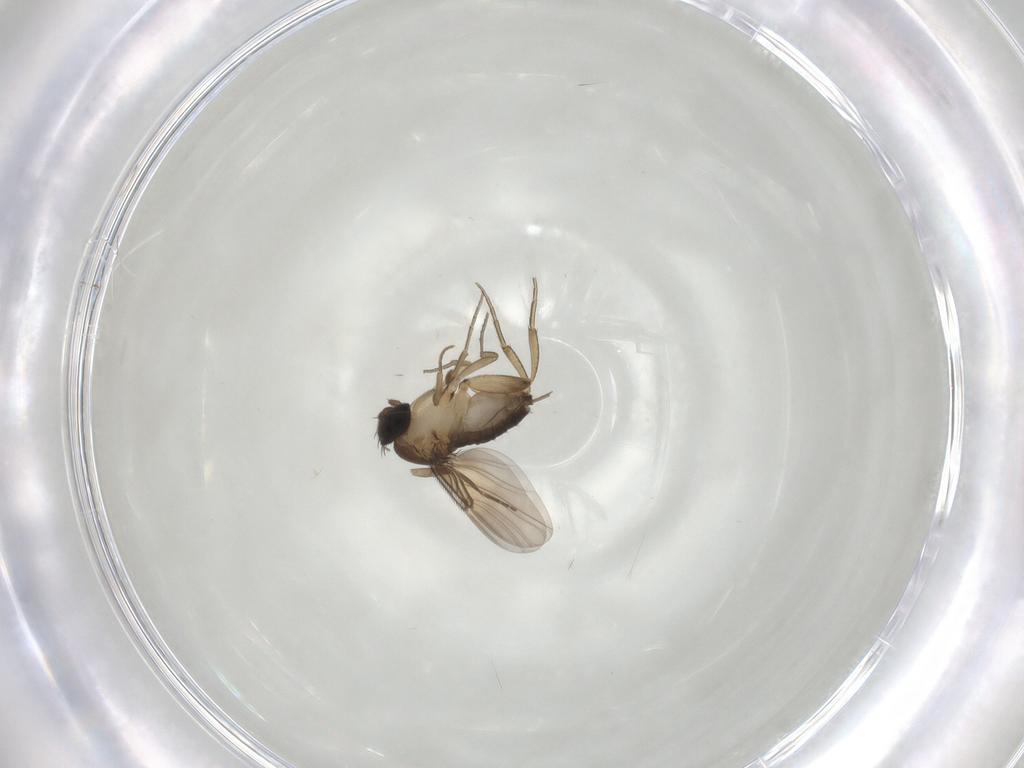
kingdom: Animalia
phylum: Arthropoda
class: Insecta
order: Diptera
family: Phoridae
